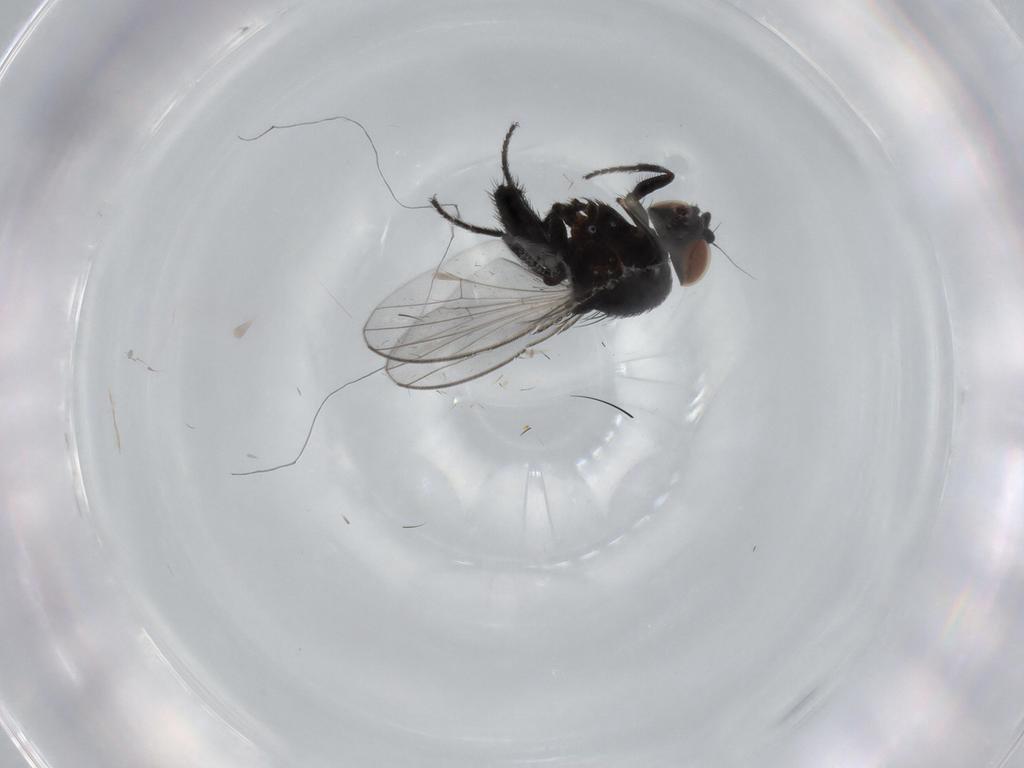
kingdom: Animalia
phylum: Arthropoda
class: Insecta
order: Diptera
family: Milichiidae
